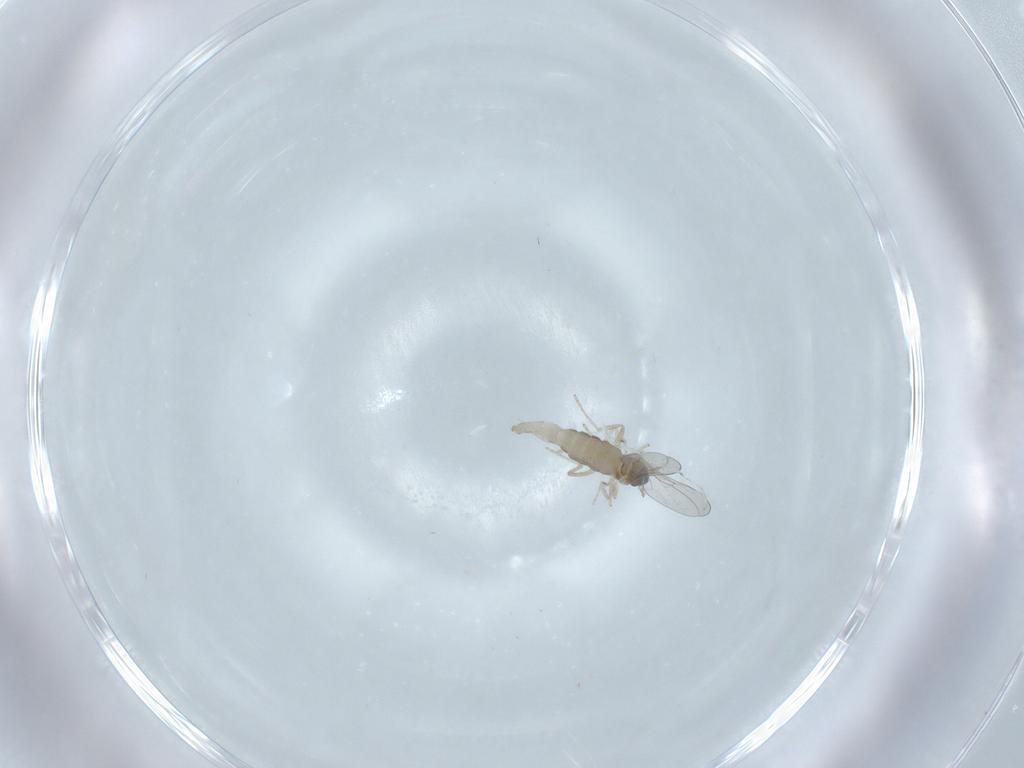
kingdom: Animalia
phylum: Arthropoda
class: Insecta
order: Diptera
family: Cecidomyiidae
